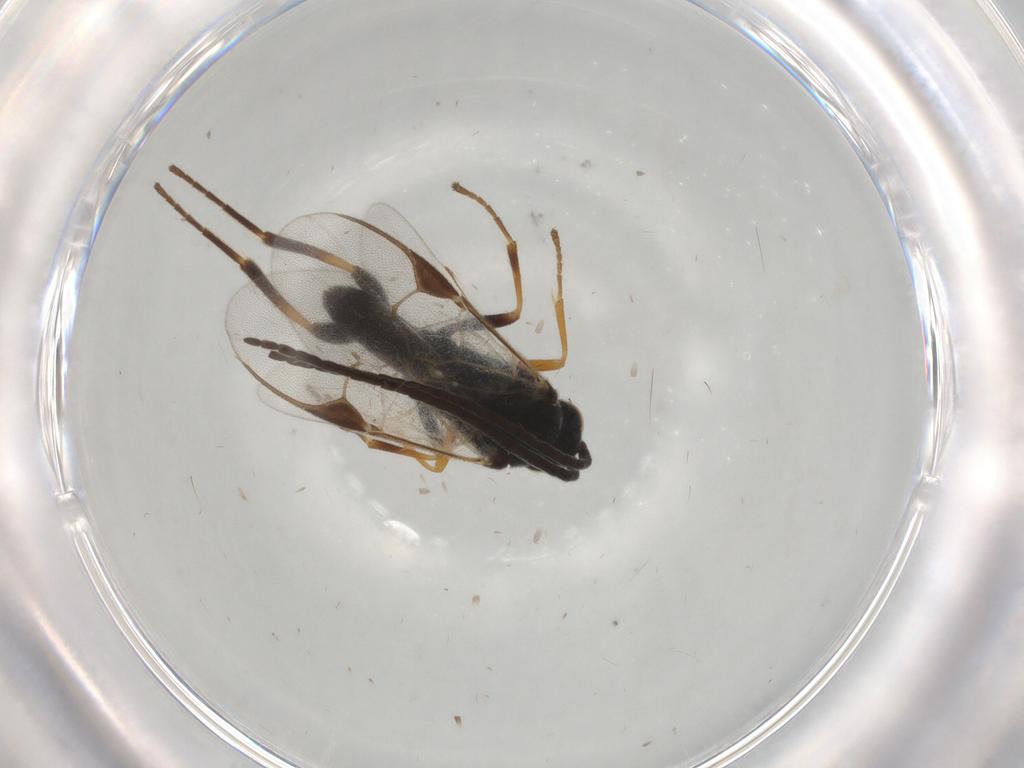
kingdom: Animalia
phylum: Arthropoda
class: Insecta
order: Hymenoptera
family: Braconidae
